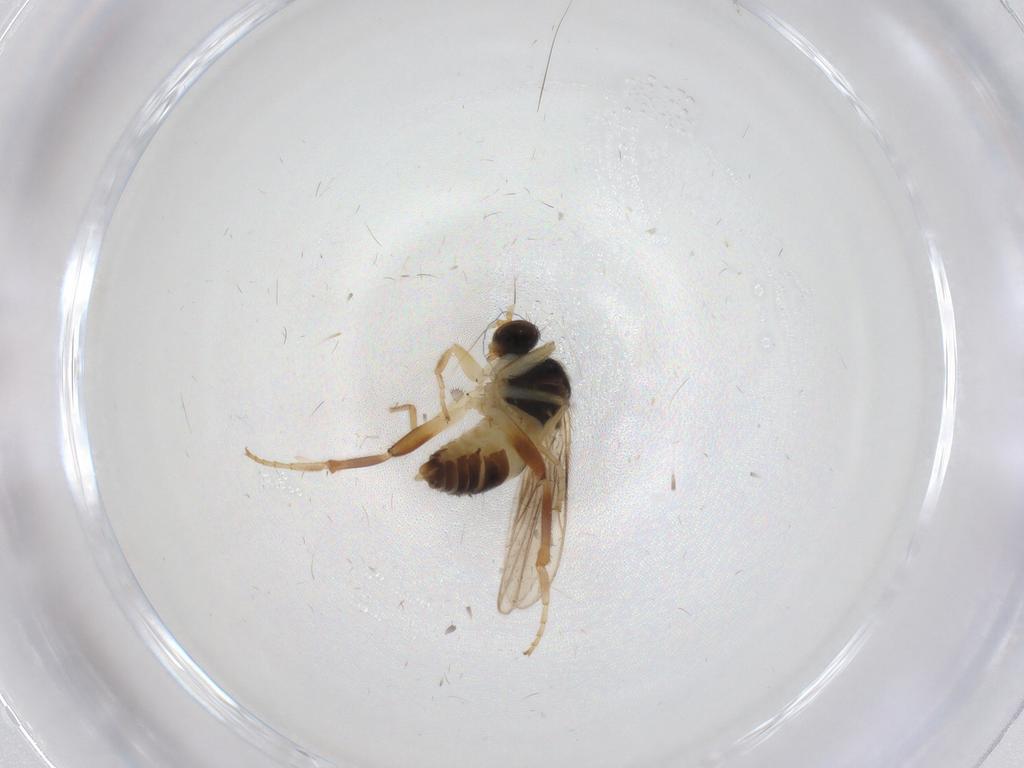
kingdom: Animalia
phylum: Arthropoda
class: Insecta
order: Diptera
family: Hybotidae
